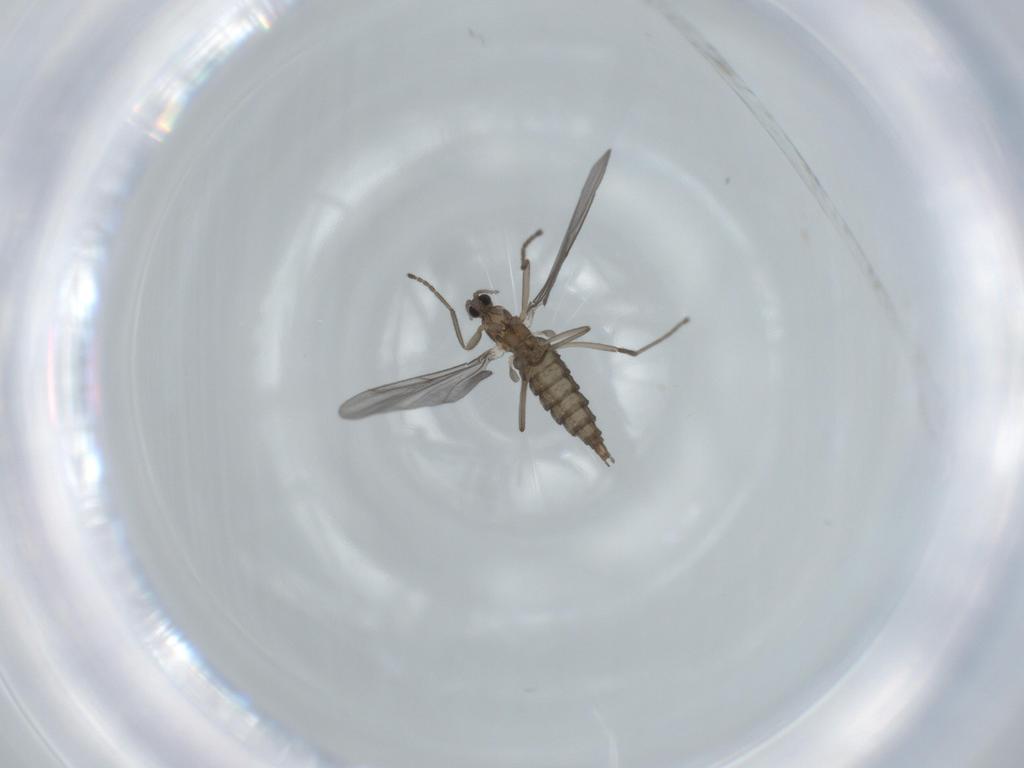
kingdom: Animalia
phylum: Arthropoda
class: Insecta
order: Diptera
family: Cecidomyiidae
